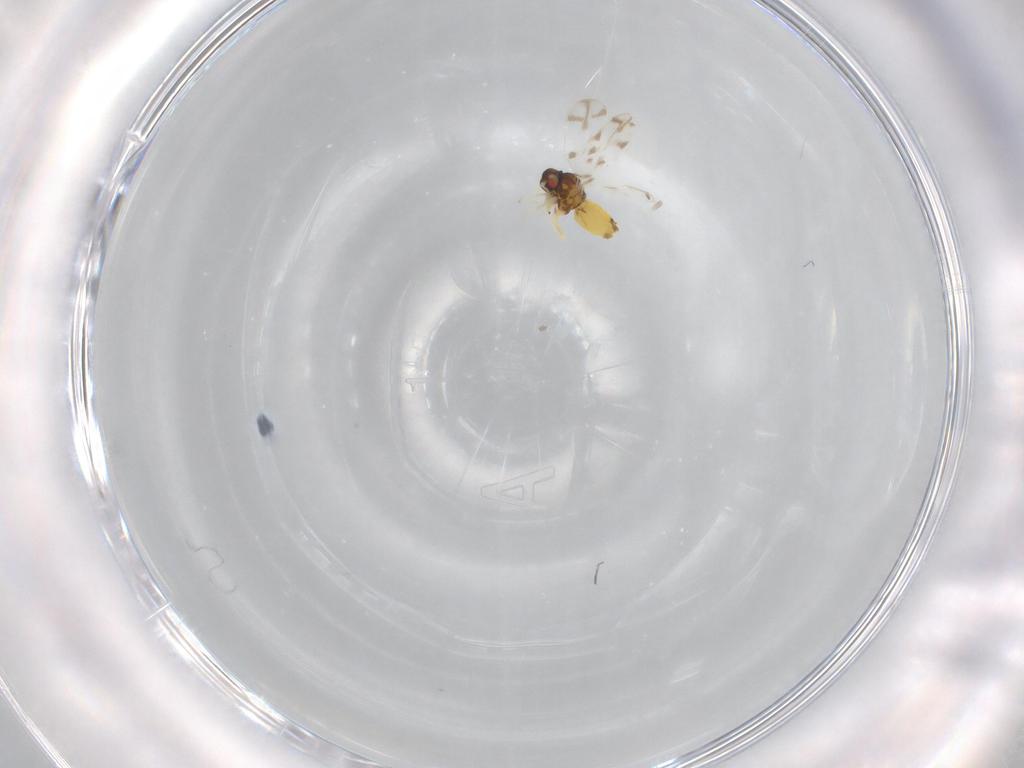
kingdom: Animalia
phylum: Arthropoda
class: Insecta
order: Hemiptera
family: Aleyrodidae
